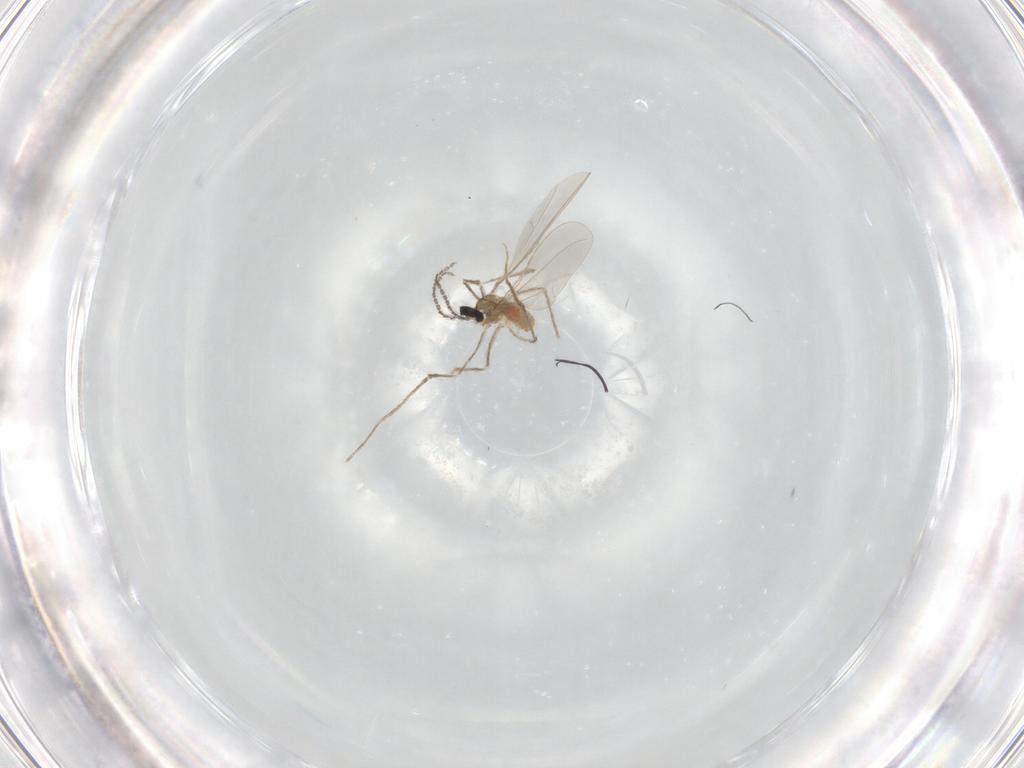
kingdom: Animalia
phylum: Arthropoda
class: Insecta
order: Diptera
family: Cecidomyiidae
